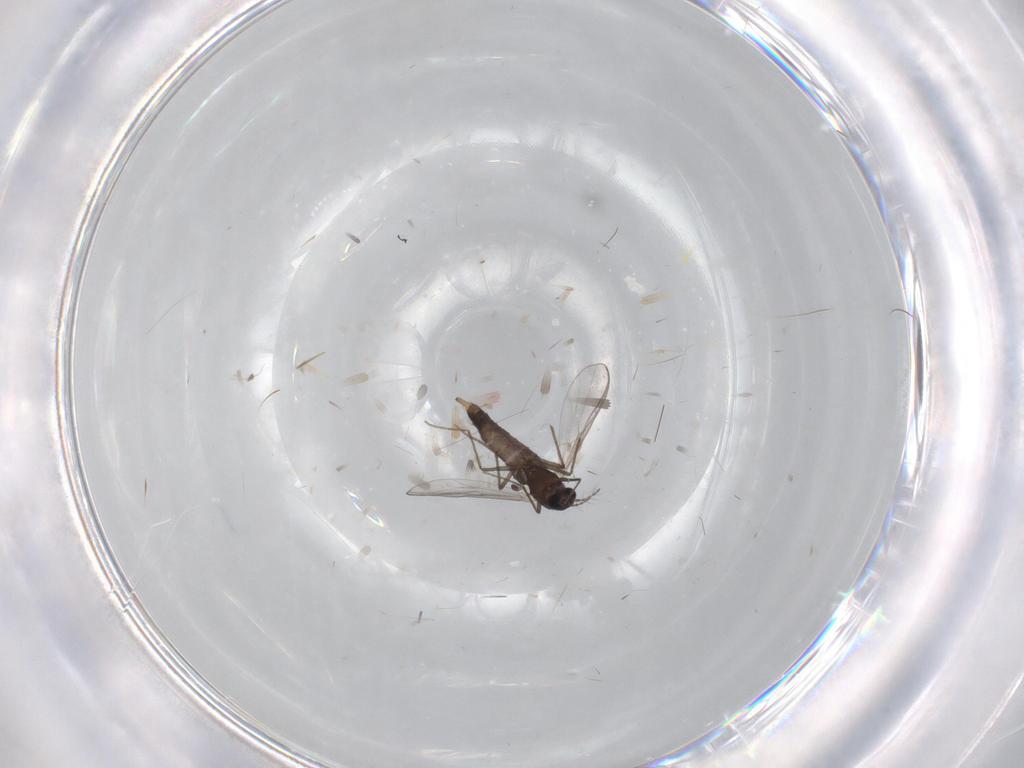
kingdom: Animalia
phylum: Arthropoda
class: Insecta
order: Diptera
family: Chironomidae
